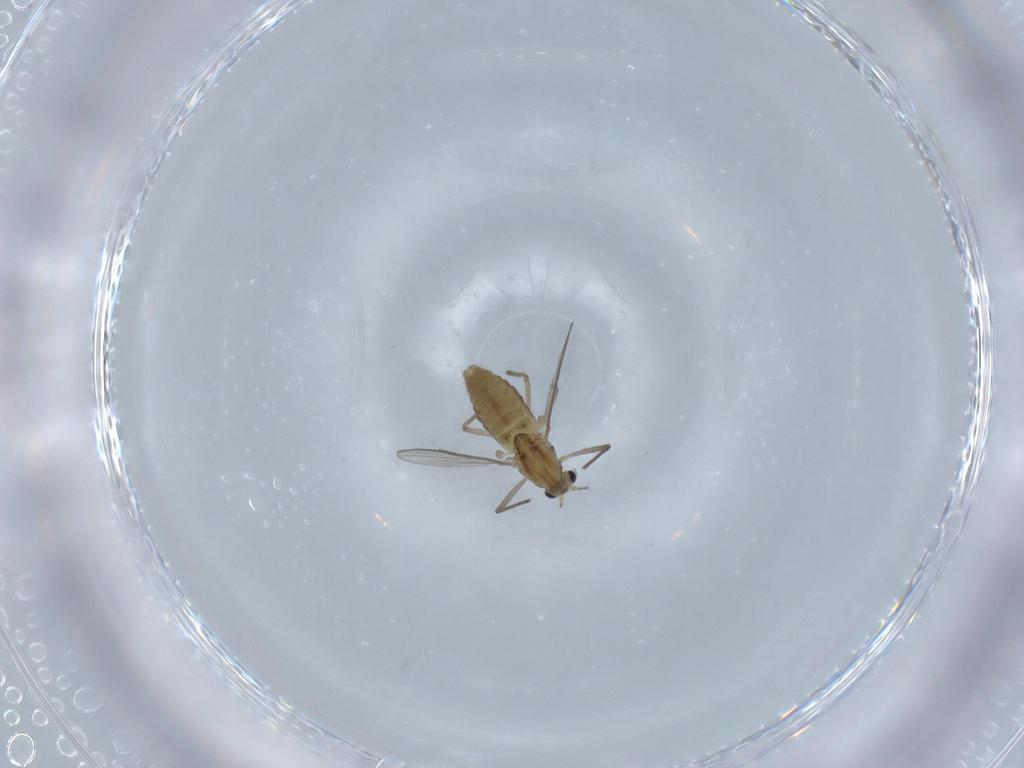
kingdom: Animalia
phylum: Arthropoda
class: Insecta
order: Diptera
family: Chironomidae
